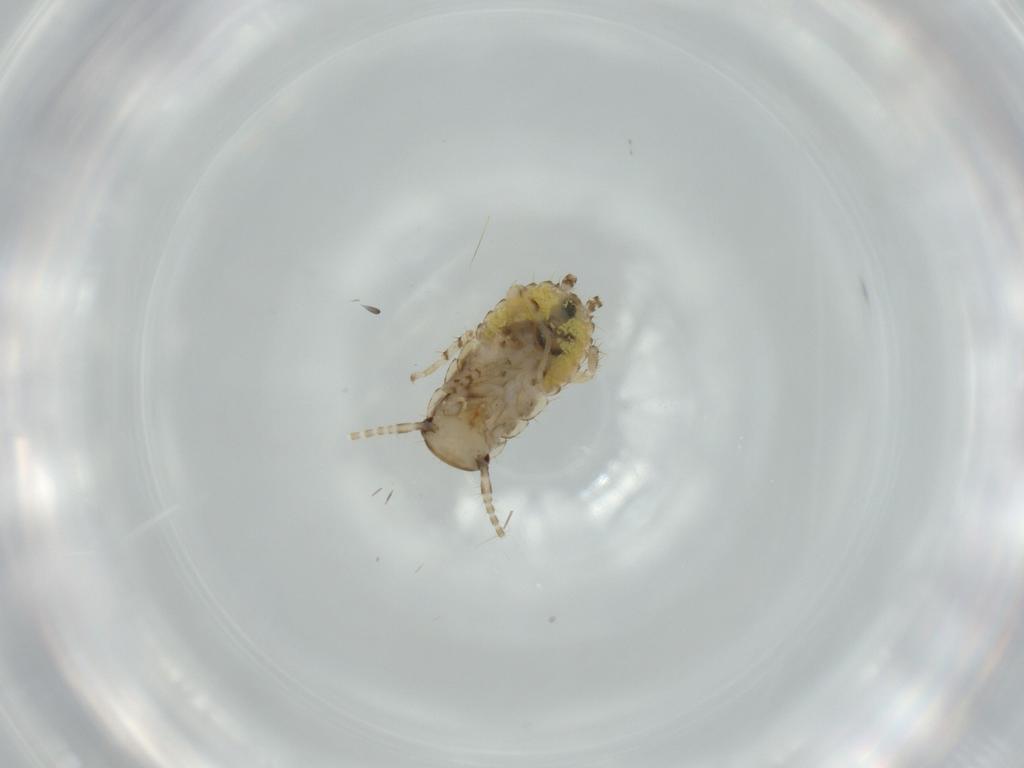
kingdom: Animalia
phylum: Arthropoda
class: Insecta
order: Blattodea
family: Ectobiidae
